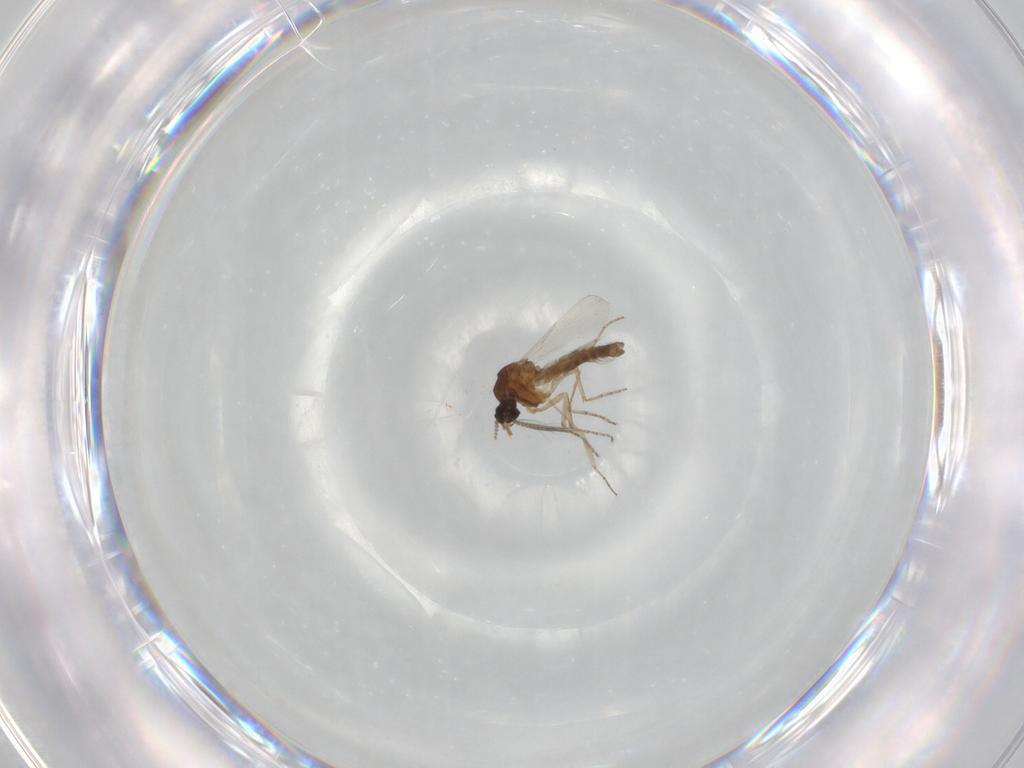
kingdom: Animalia
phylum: Arthropoda
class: Insecta
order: Diptera
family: Ceratopogonidae
